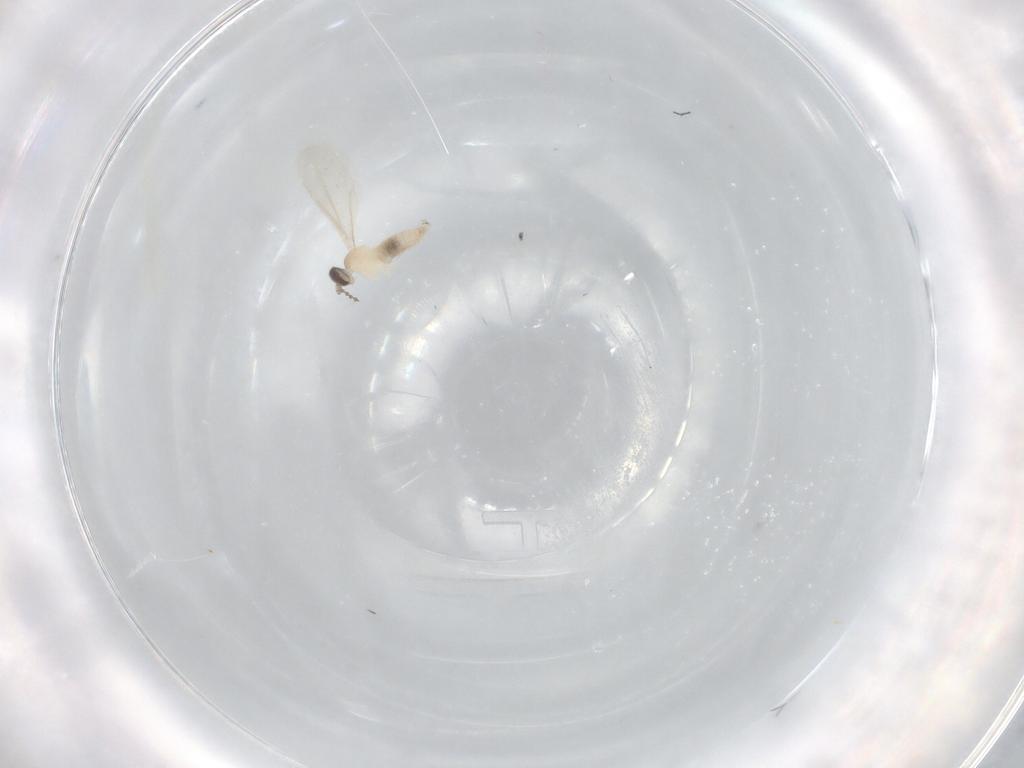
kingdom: Animalia
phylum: Arthropoda
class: Insecta
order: Diptera
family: Cecidomyiidae
